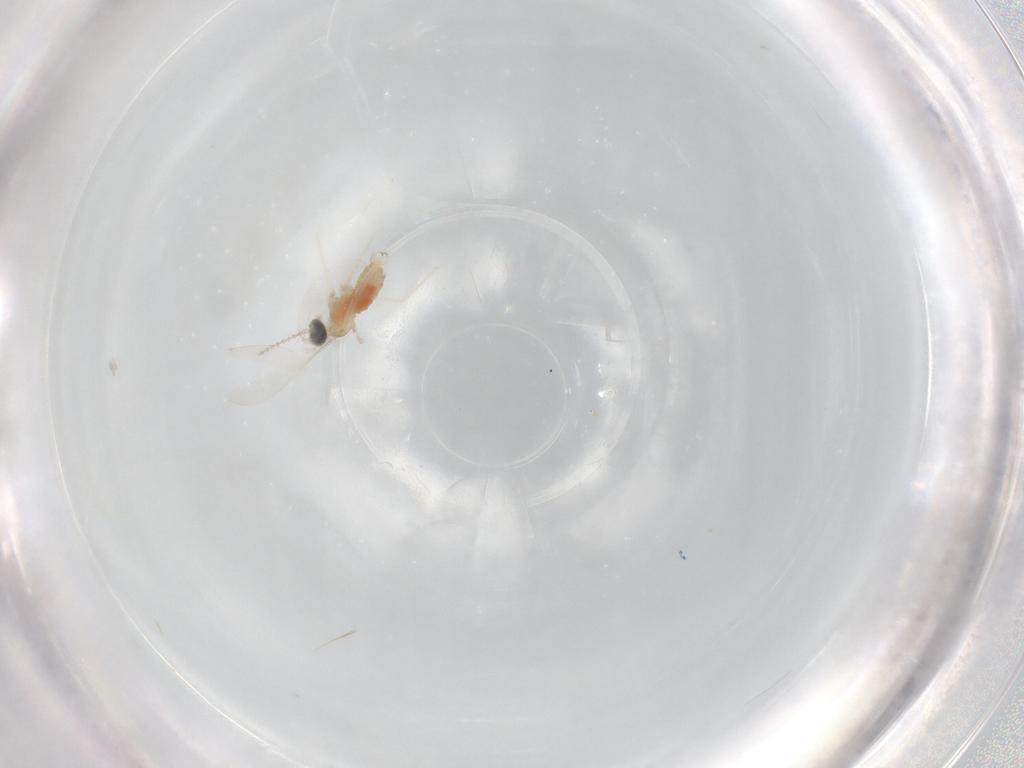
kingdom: Animalia
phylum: Arthropoda
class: Insecta
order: Diptera
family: Cecidomyiidae
